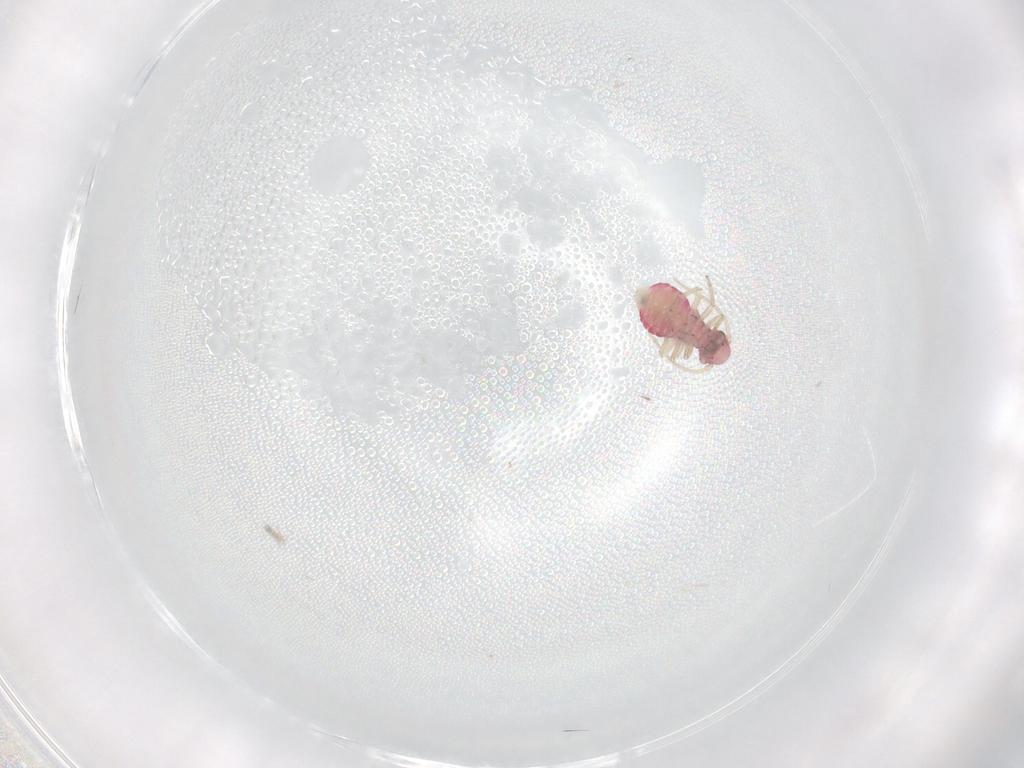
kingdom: Animalia
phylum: Arthropoda
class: Insecta
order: Psocodea
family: Caeciliusidae
